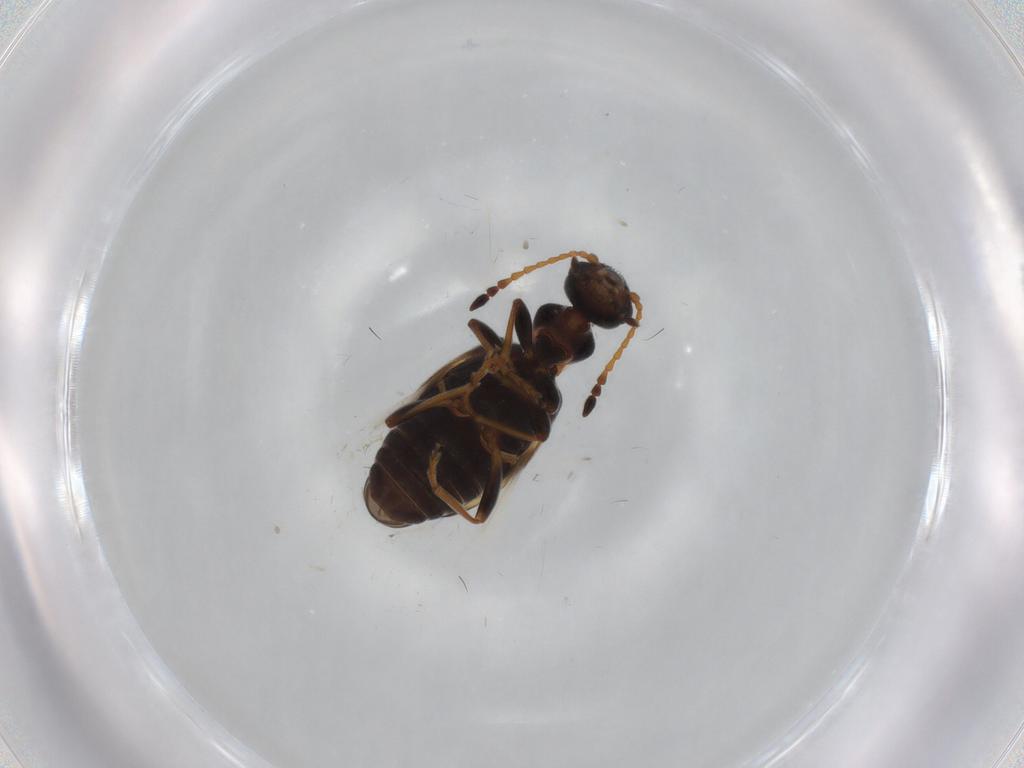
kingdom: Animalia
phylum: Arthropoda
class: Insecta
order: Coleoptera
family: Anthicidae
